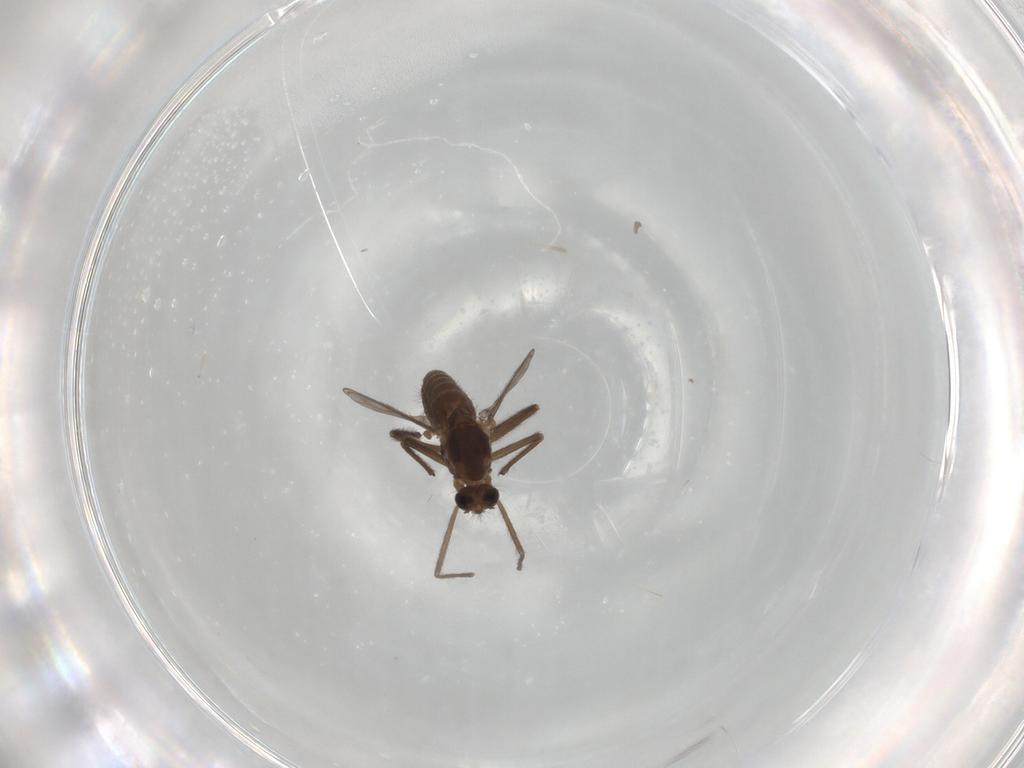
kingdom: Animalia
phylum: Arthropoda
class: Insecta
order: Diptera
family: Chironomidae
